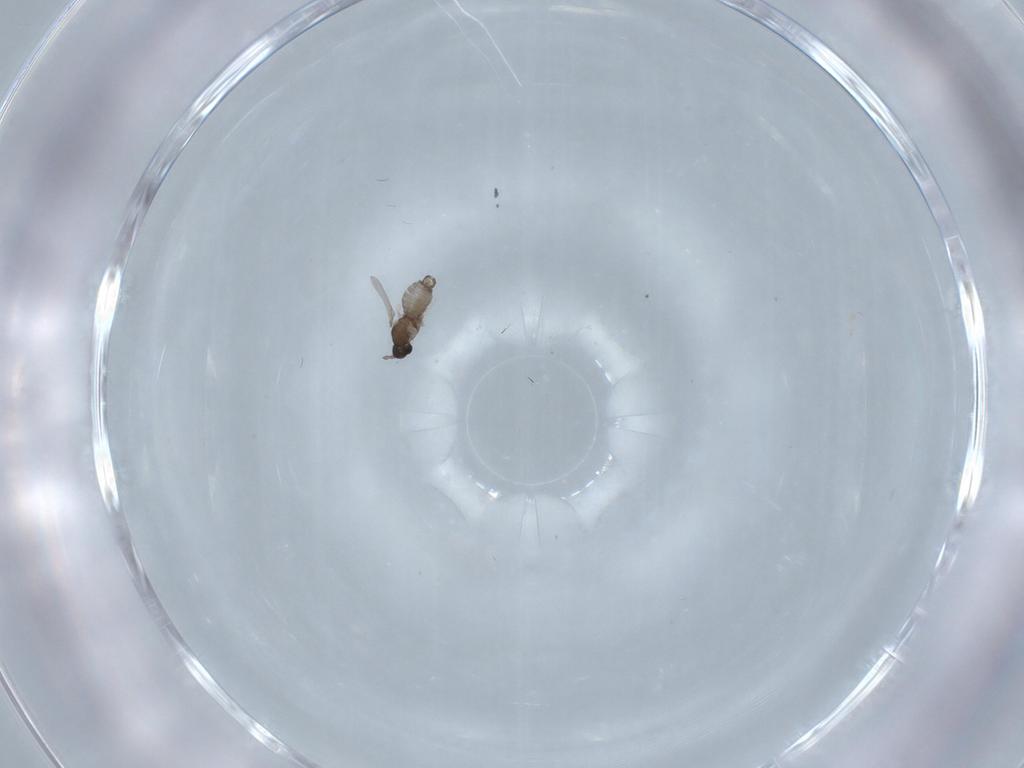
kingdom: Animalia
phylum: Arthropoda
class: Insecta
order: Diptera
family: Cecidomyiidae
